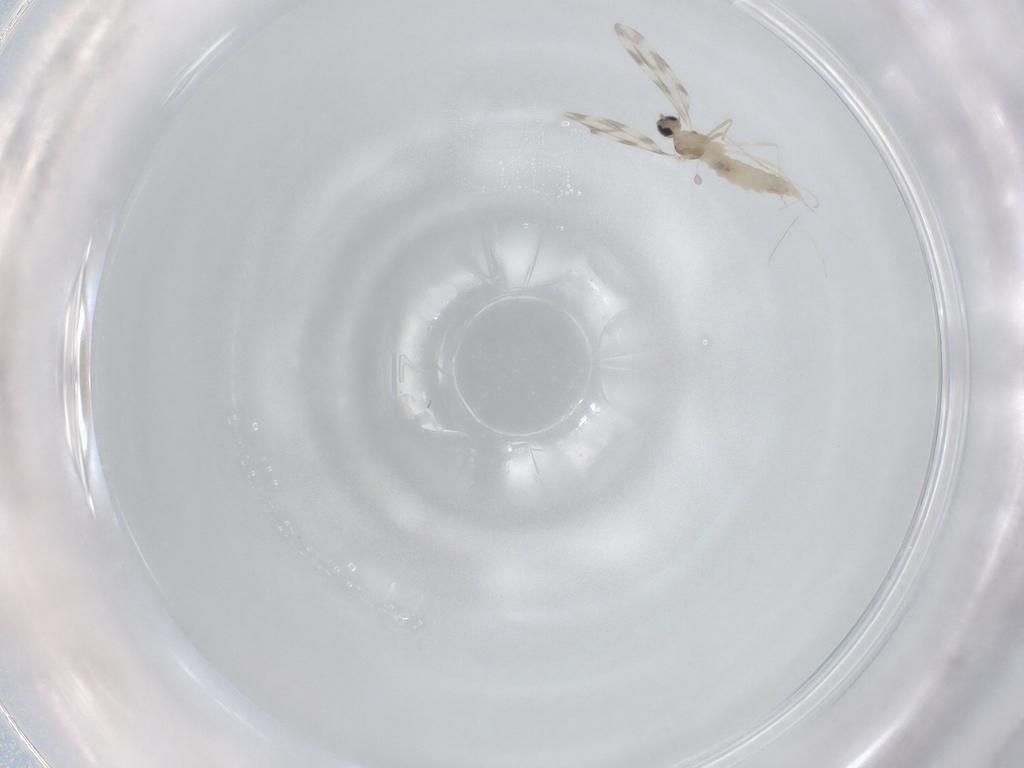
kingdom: Animalia
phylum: Arthropoda
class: Insecta
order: Diptera
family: Cecidomyiidae
